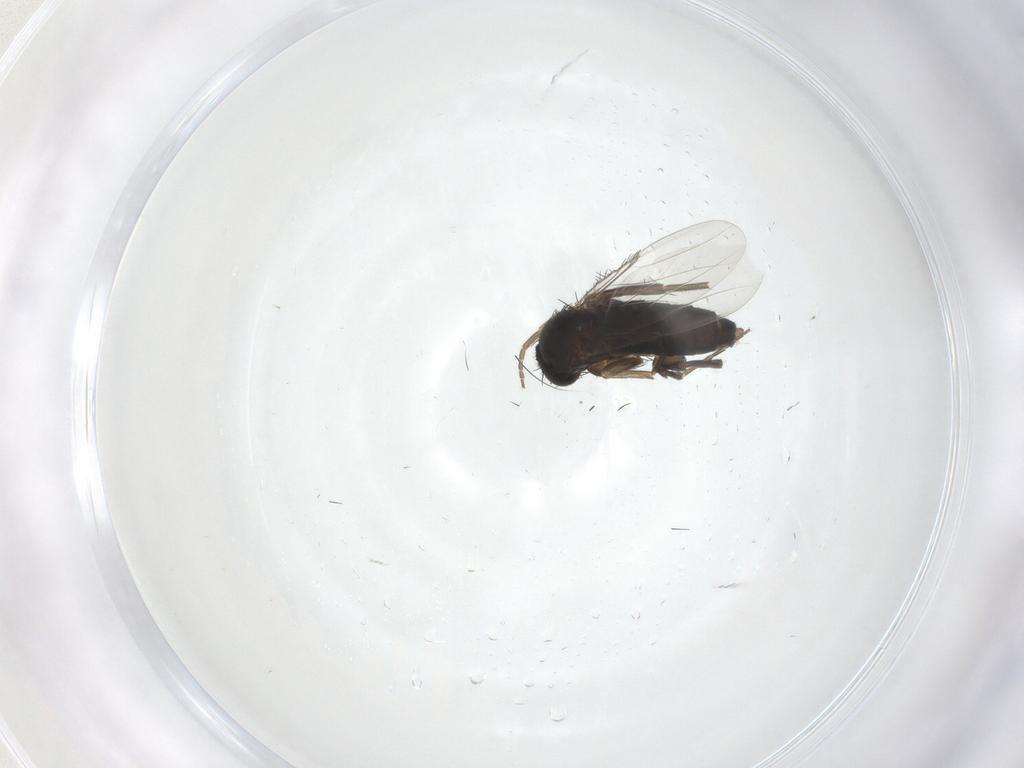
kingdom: Animalia
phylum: Arthropoda
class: Insecta
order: Diptera
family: Phoridae
